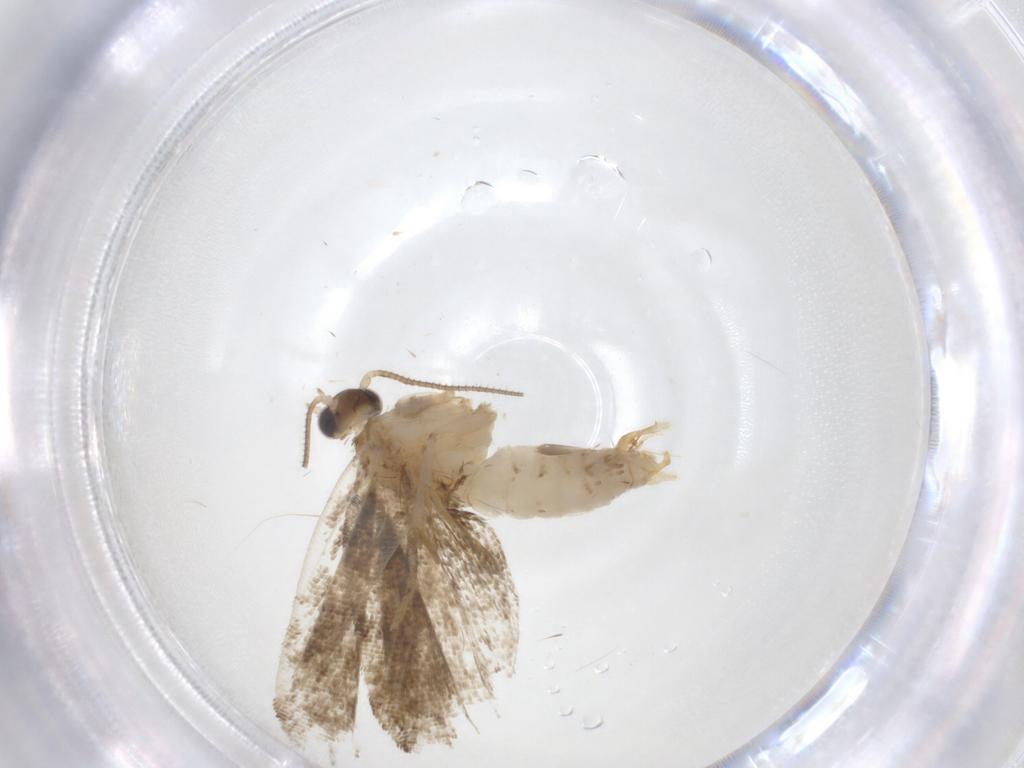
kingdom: Animalia
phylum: Arthropoda
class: Insecta
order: Lepidoptera
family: Tortricidae
